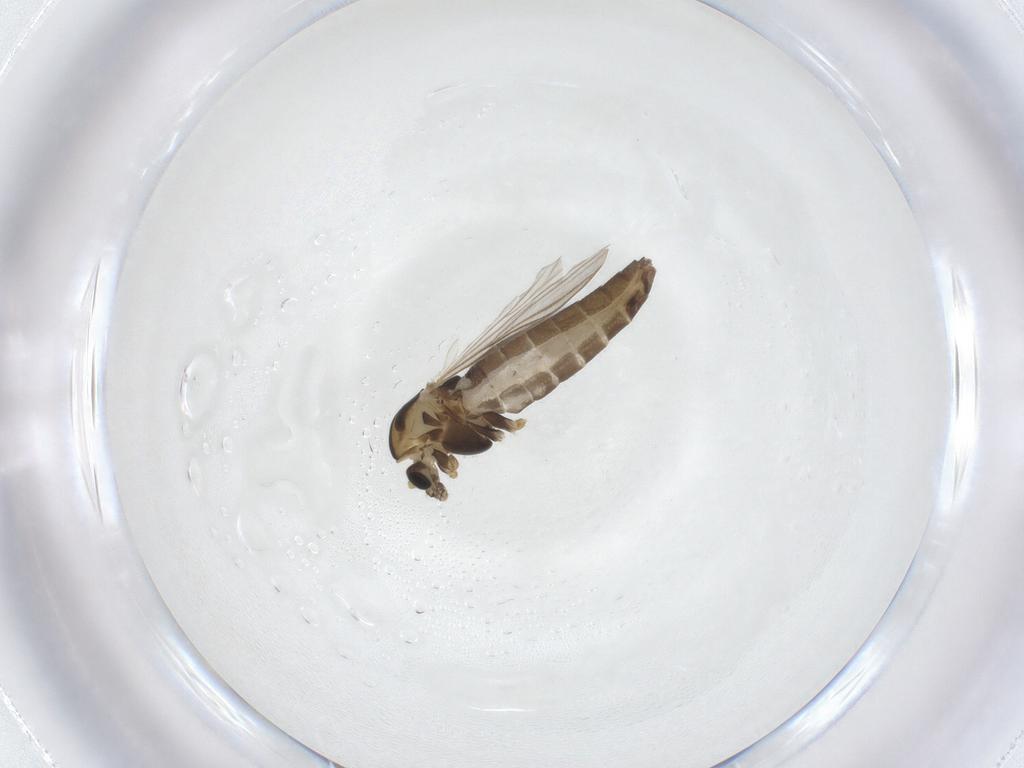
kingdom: Animalia
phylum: Arthropoda
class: Insecta
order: Diptera
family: Chironomidae
